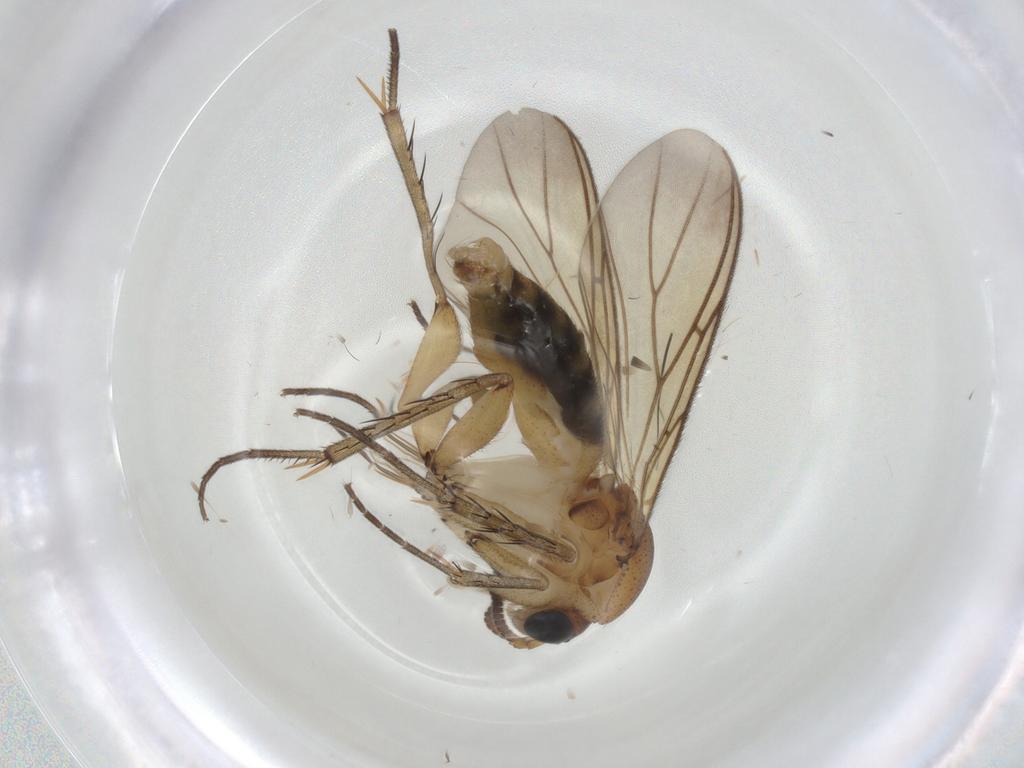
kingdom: Animalia
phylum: Arthropoda
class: Insecta
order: Diptera
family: Mycetophilidae
